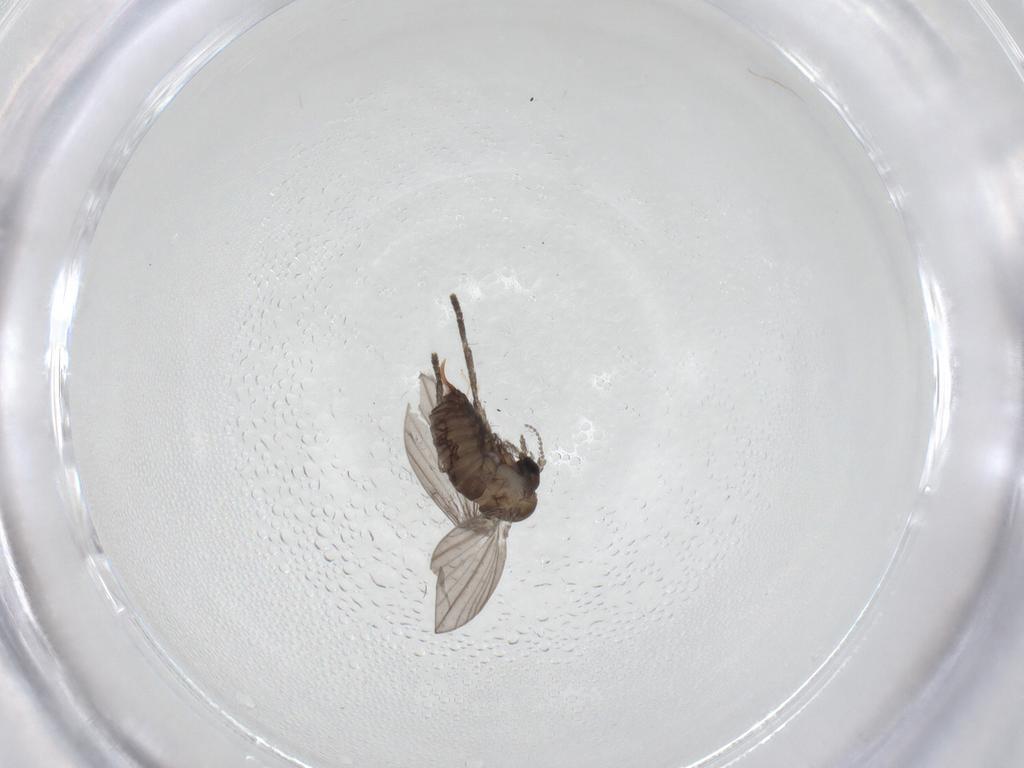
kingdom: Animalia
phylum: Arthropoda
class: Insecta
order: Diptera
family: Psychodidae
